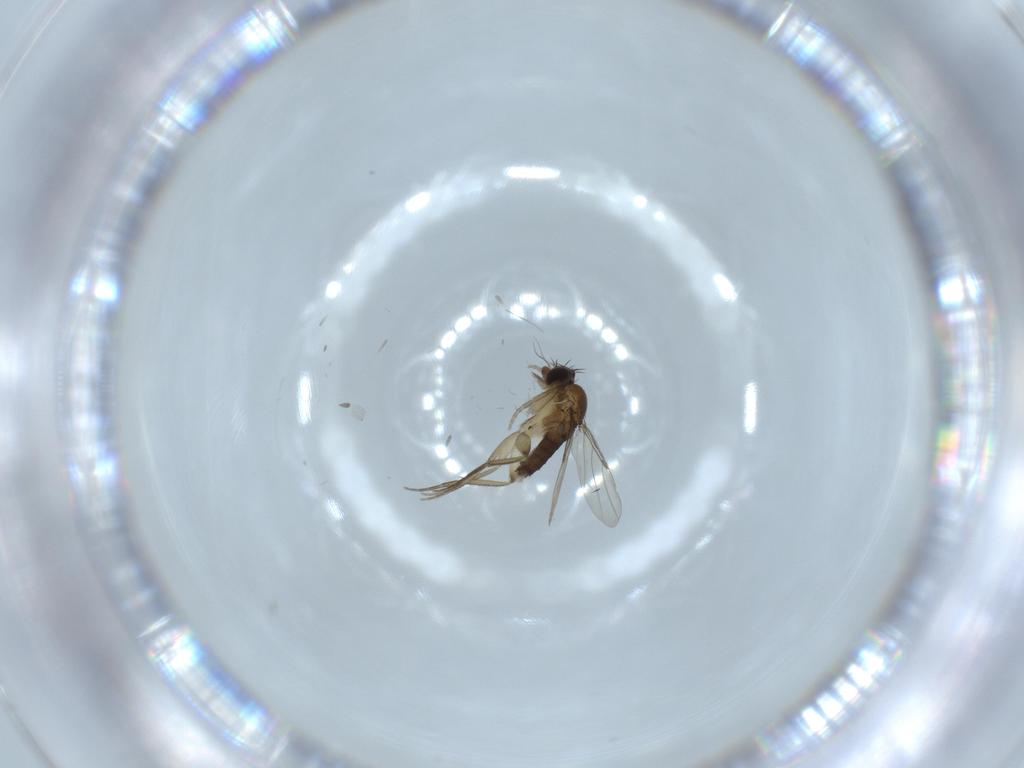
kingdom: Animalia
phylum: Arthropoda
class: Insecta
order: Diptera
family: Phoridae
